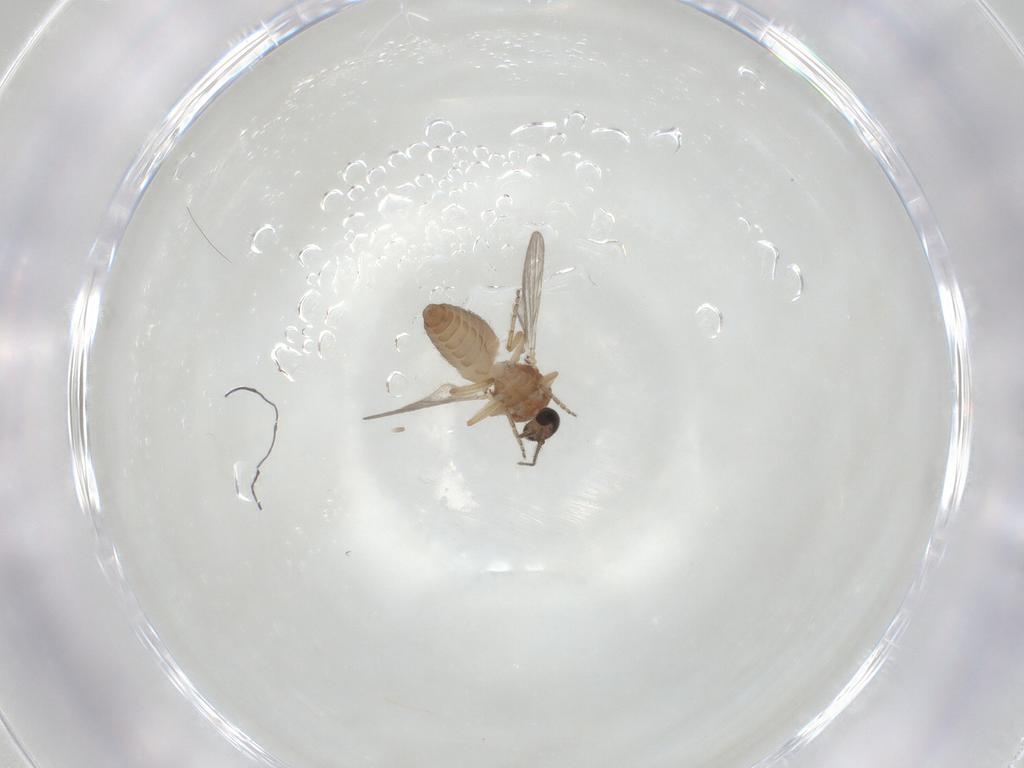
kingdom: Animalia
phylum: Arthropoda
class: Insecta
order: Diptera
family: Ceratopogonidae
